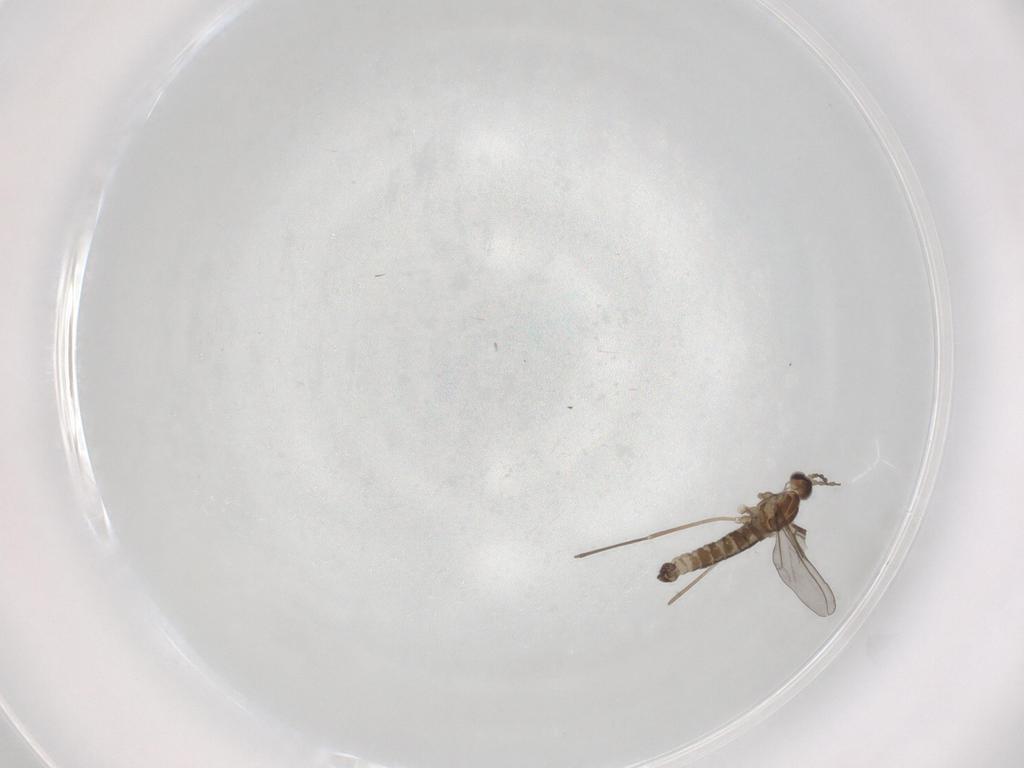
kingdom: Animalia
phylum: Arthropoda
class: Insecta
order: Diptera
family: Cecidomyiidae
